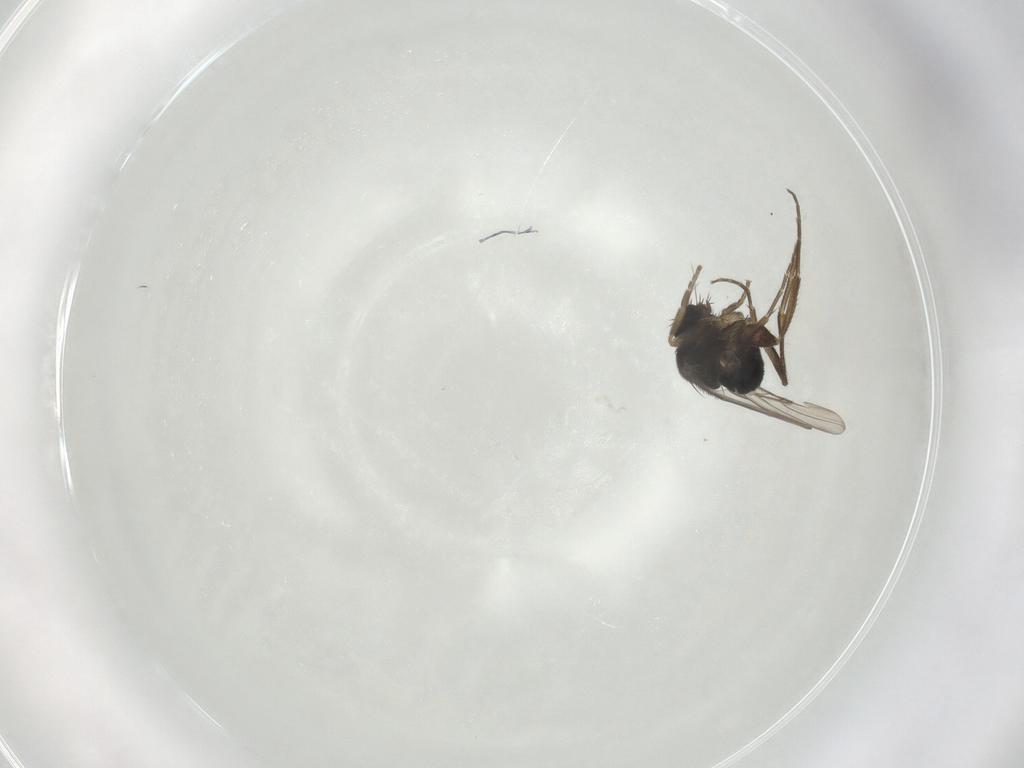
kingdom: Animalia
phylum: Arthropoda
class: Insecta
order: Diptera
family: Phoridae
